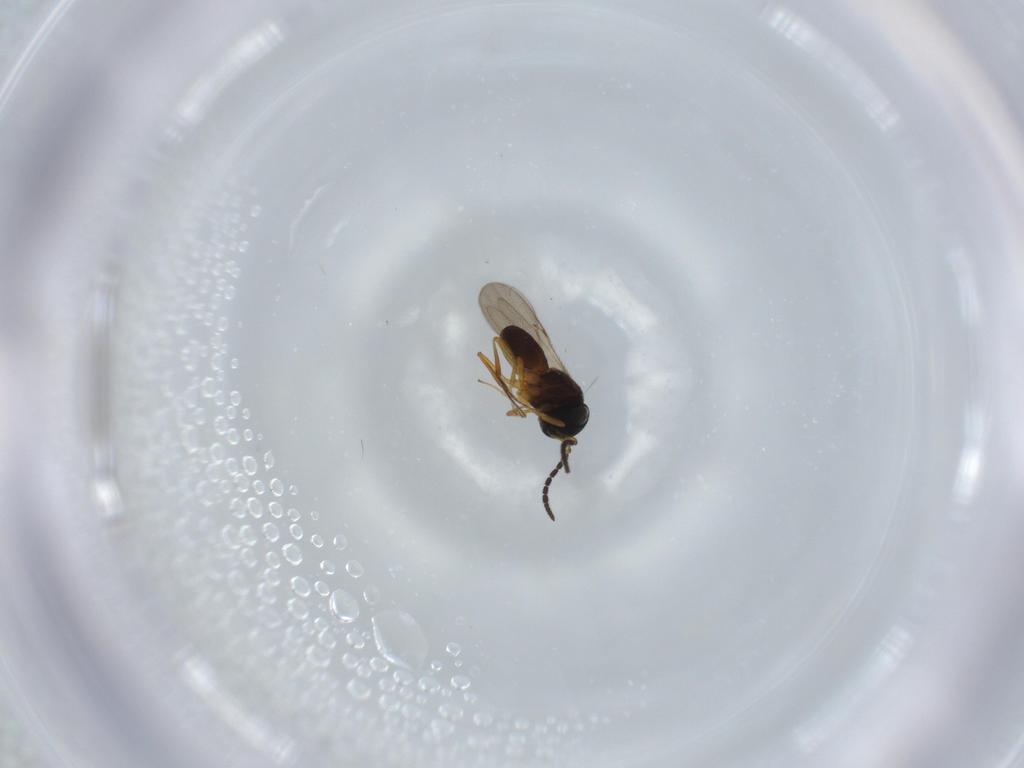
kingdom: Animalia
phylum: Arthropoda
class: Insecta
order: Hymenoptera
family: Scelionidae
